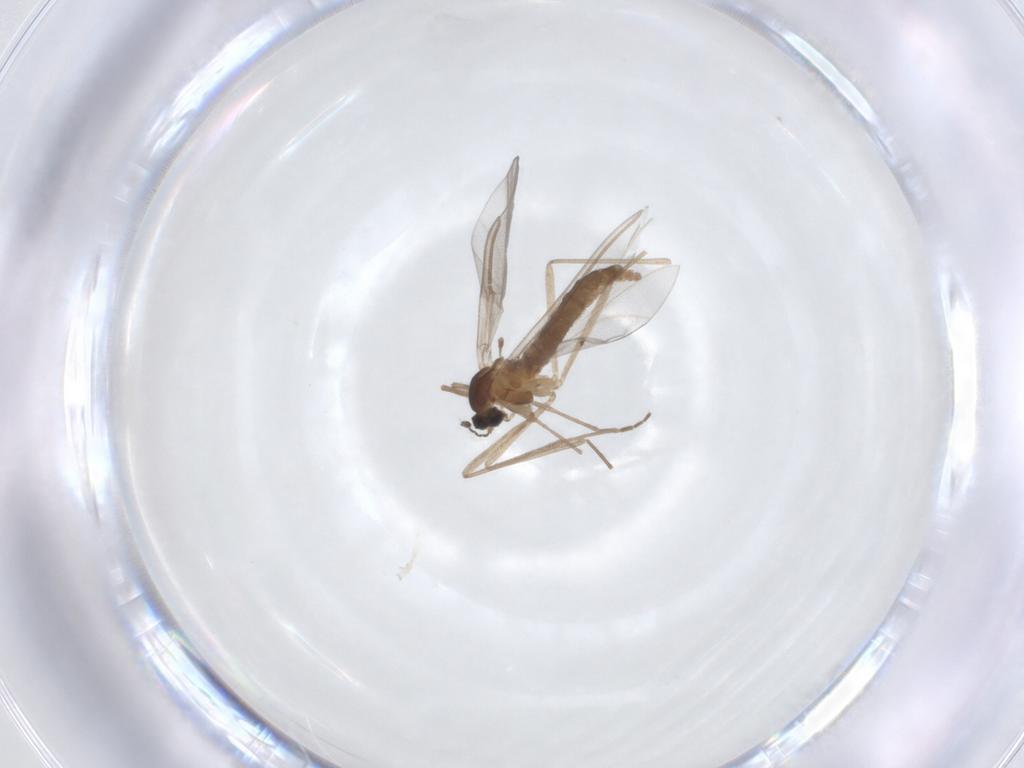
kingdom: Animalia
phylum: Arthropoda
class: Insecta
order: Diptera
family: Cecidomyiidae
